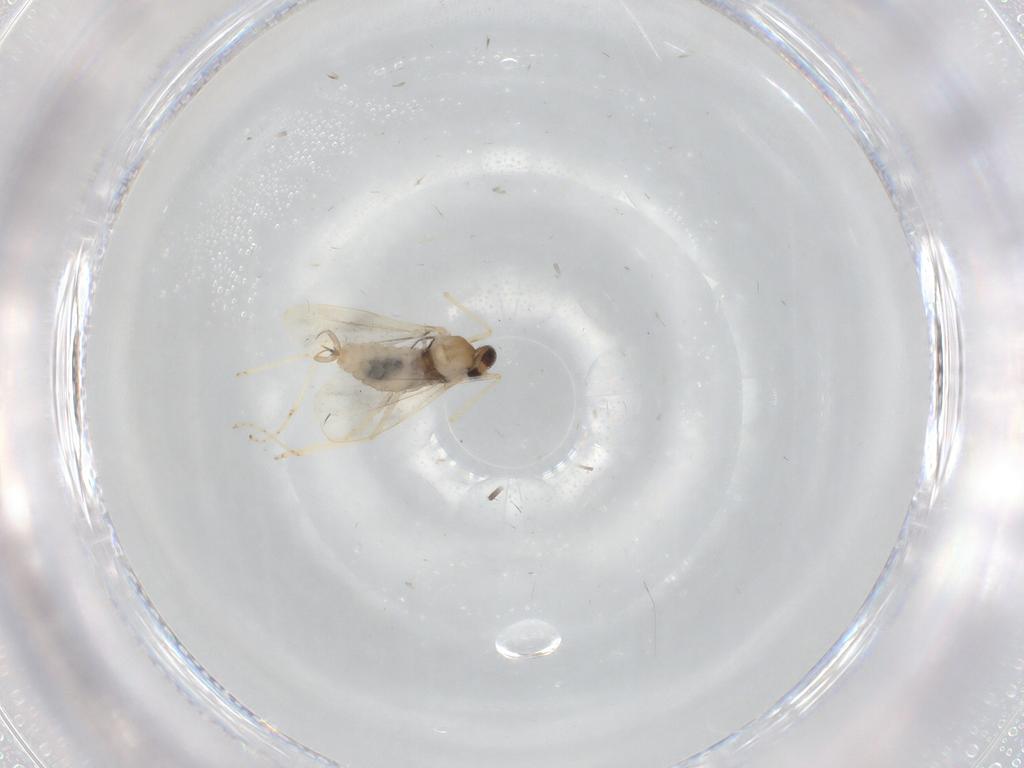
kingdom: Animalia
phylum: Arthropoda
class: Insecta
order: Diptera
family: Cecidomyiidae
